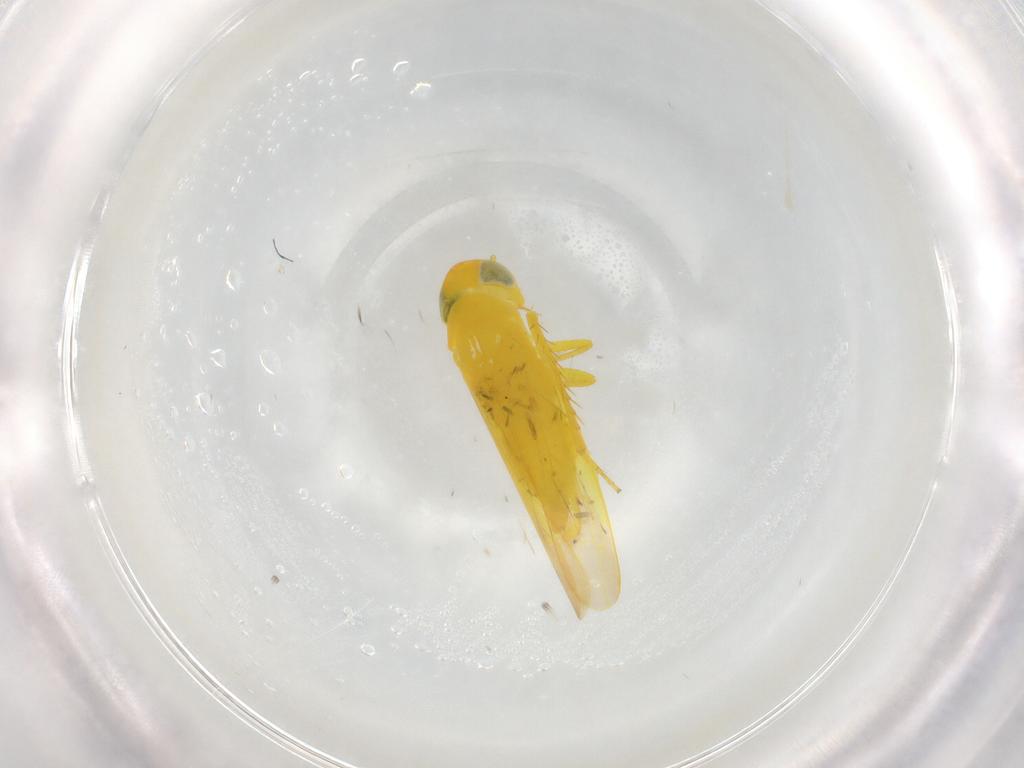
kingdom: Animalia
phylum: Arthropoda
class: Insecta
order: Hemiptera
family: Cicadellidae
